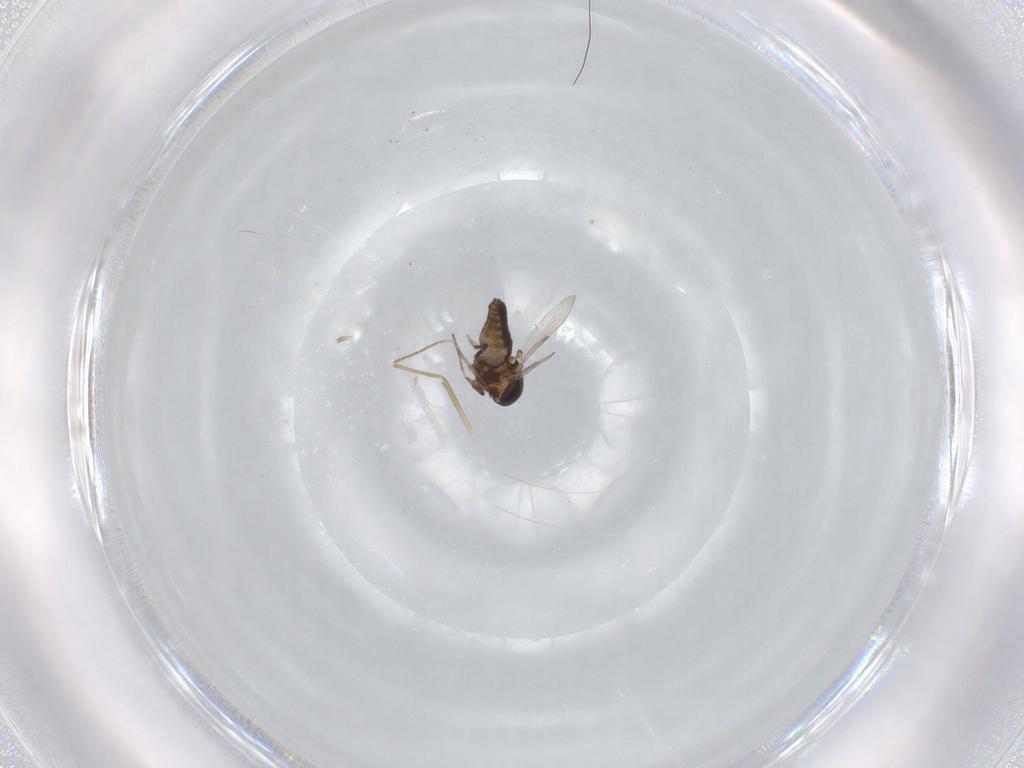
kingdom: Animalia
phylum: Arthropoda
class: Insecta
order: Diptera
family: Ceratopogonidae
